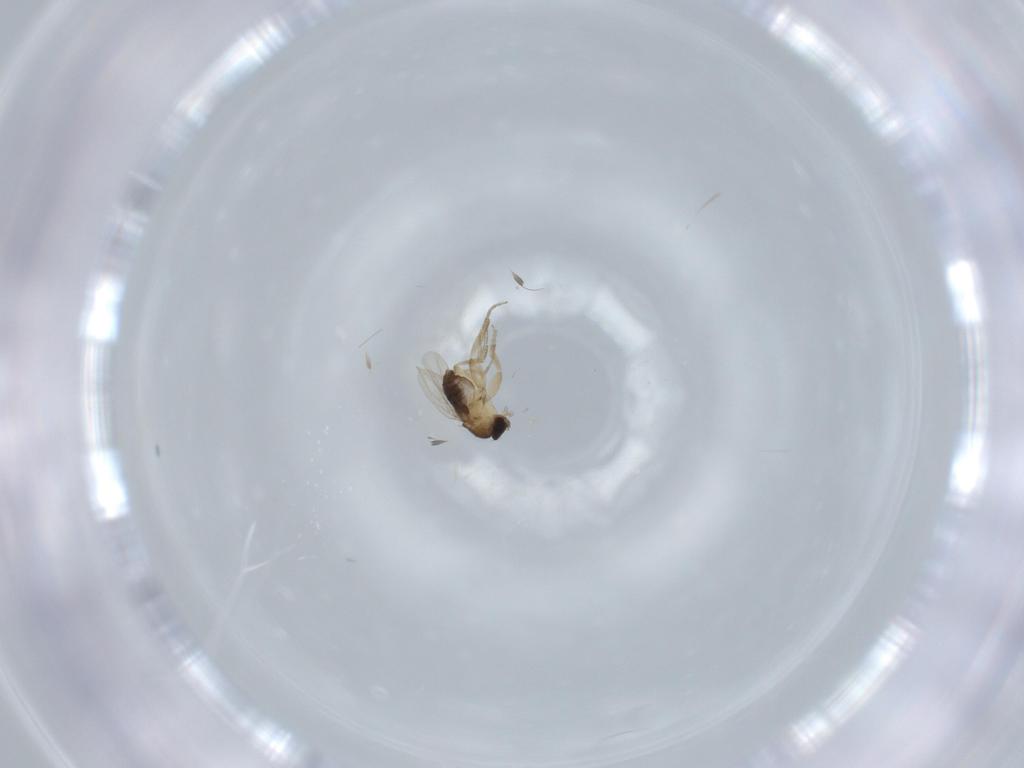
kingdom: Animalia
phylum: Arthropoda
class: Insecta
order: Diptera
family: Phoridae
